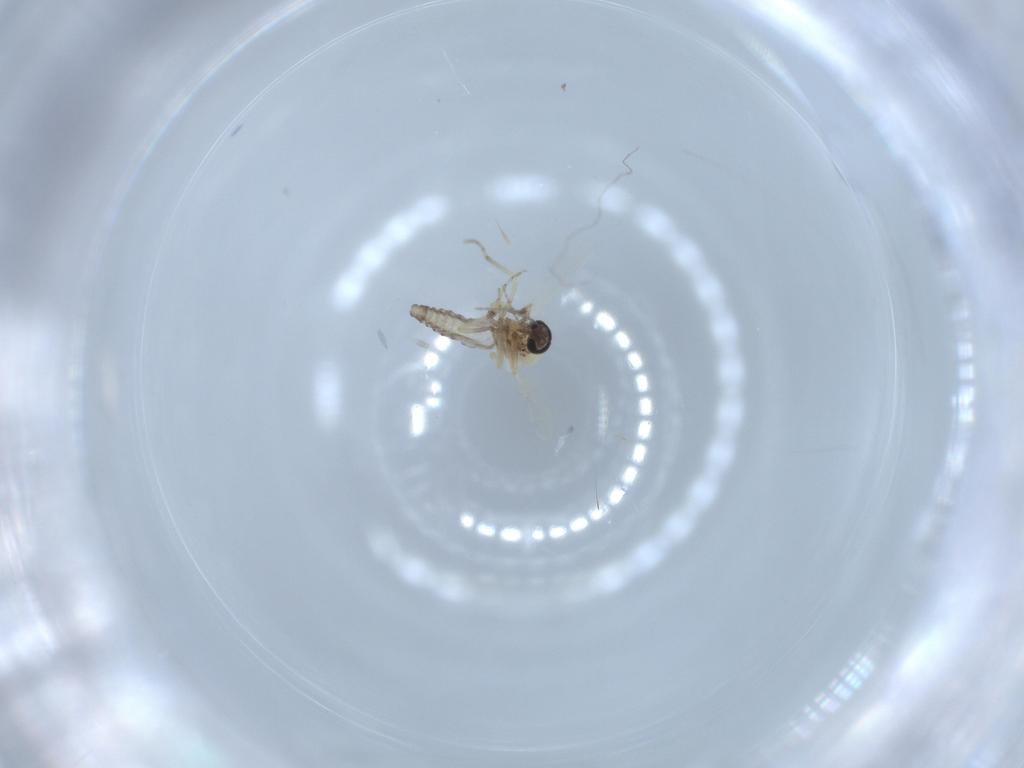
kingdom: Animalia
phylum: Arthropoda
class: Insecta
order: Diptera
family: Ceratopogonidae
